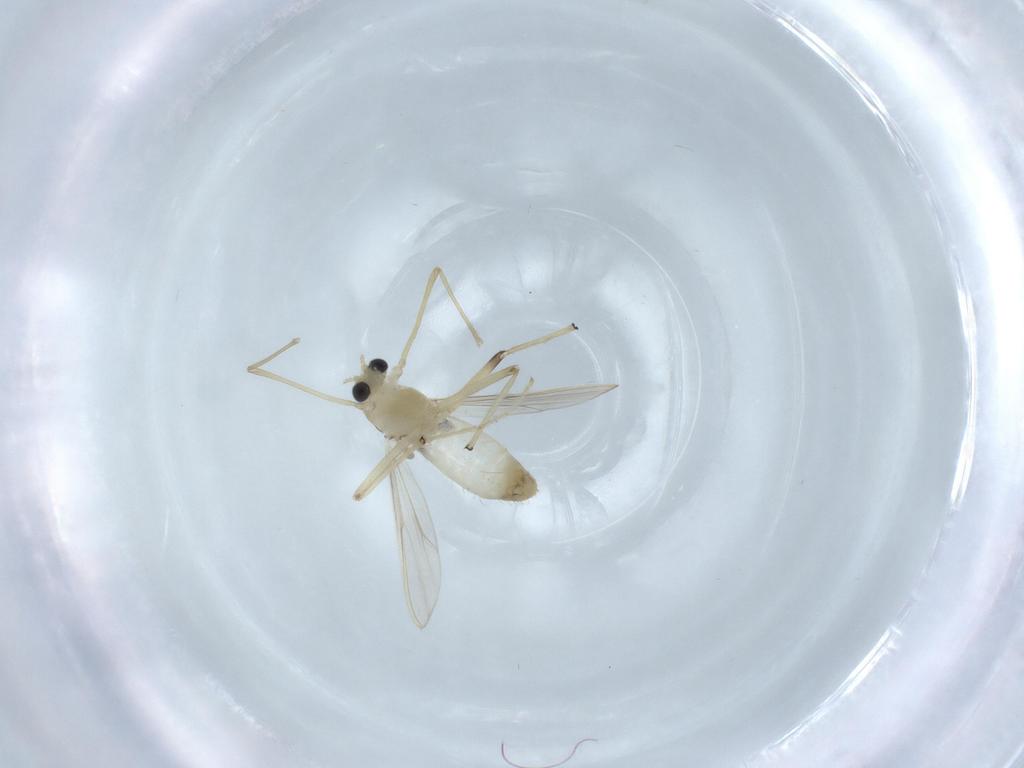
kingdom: Animalia
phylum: Arthropoda
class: Insecta
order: Diptera
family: Chironomidae
